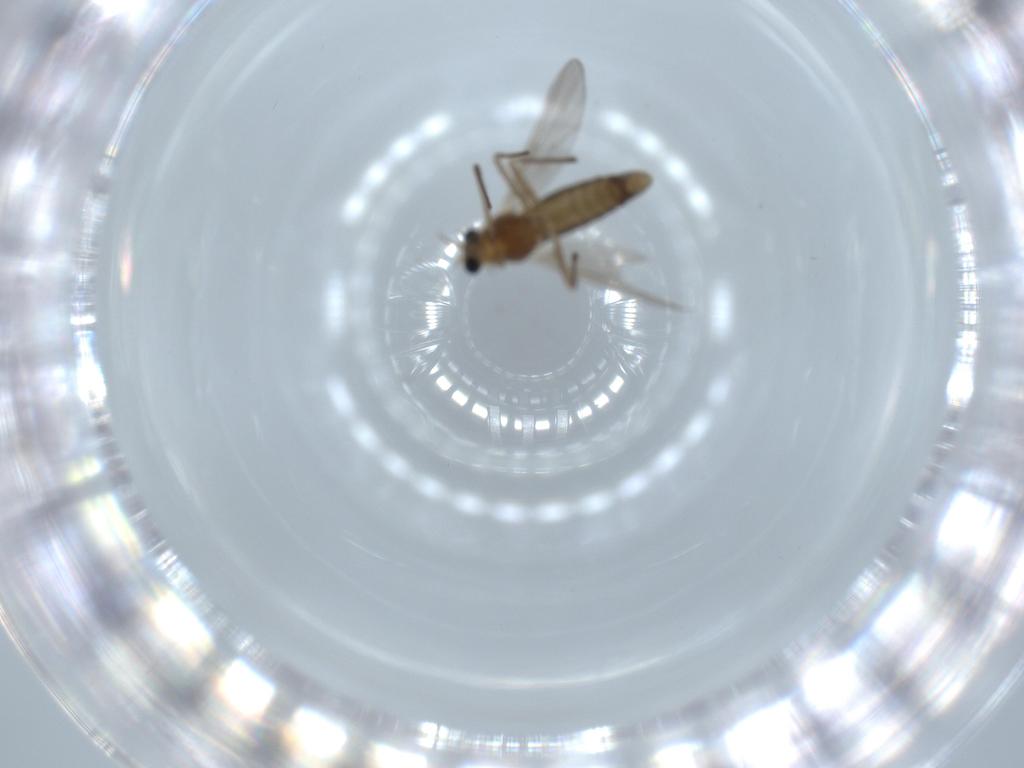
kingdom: Animalia
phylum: Arthropoda
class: Insecta
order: Diptera
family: Chironomidae
